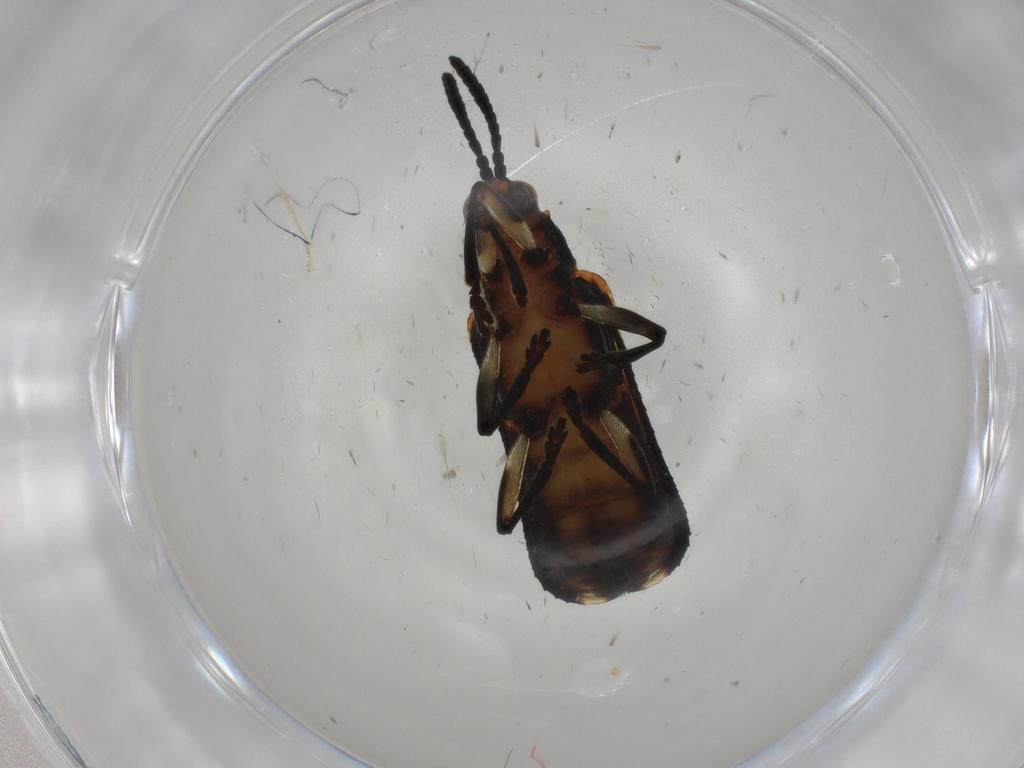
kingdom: Animalia
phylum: Arthropoda
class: Insecta
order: Coleoptera
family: Chrysomelidae
